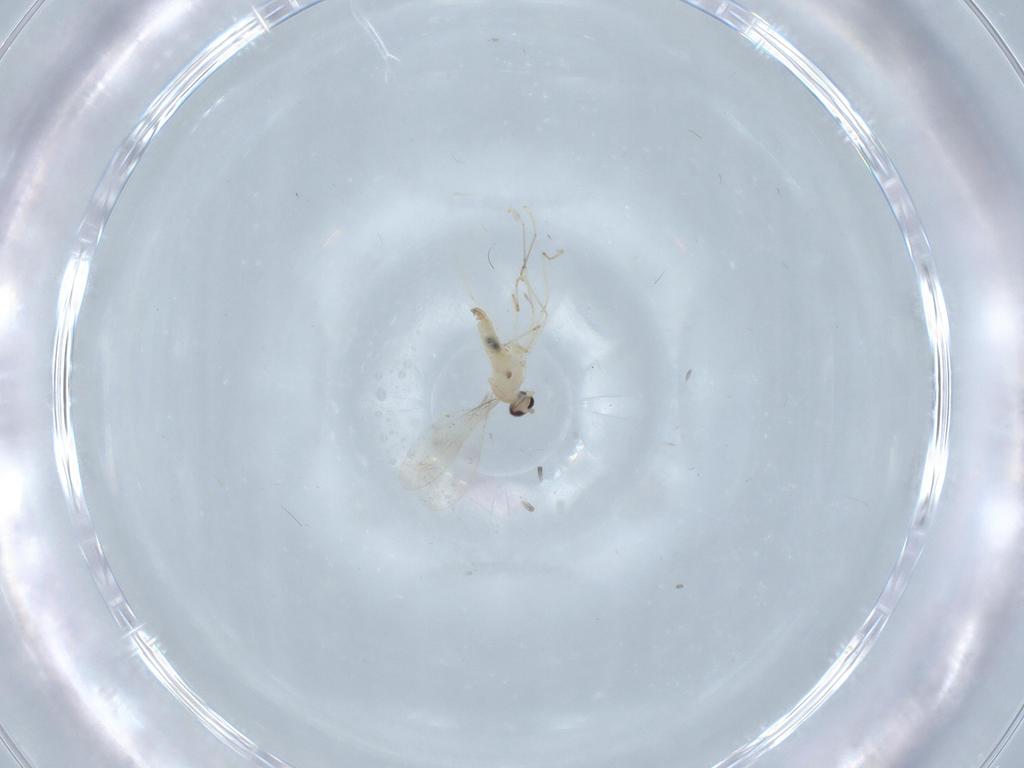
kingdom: Animalia
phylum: Arthropoda
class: Insecta
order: Diptera
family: Cecidomyiidae
